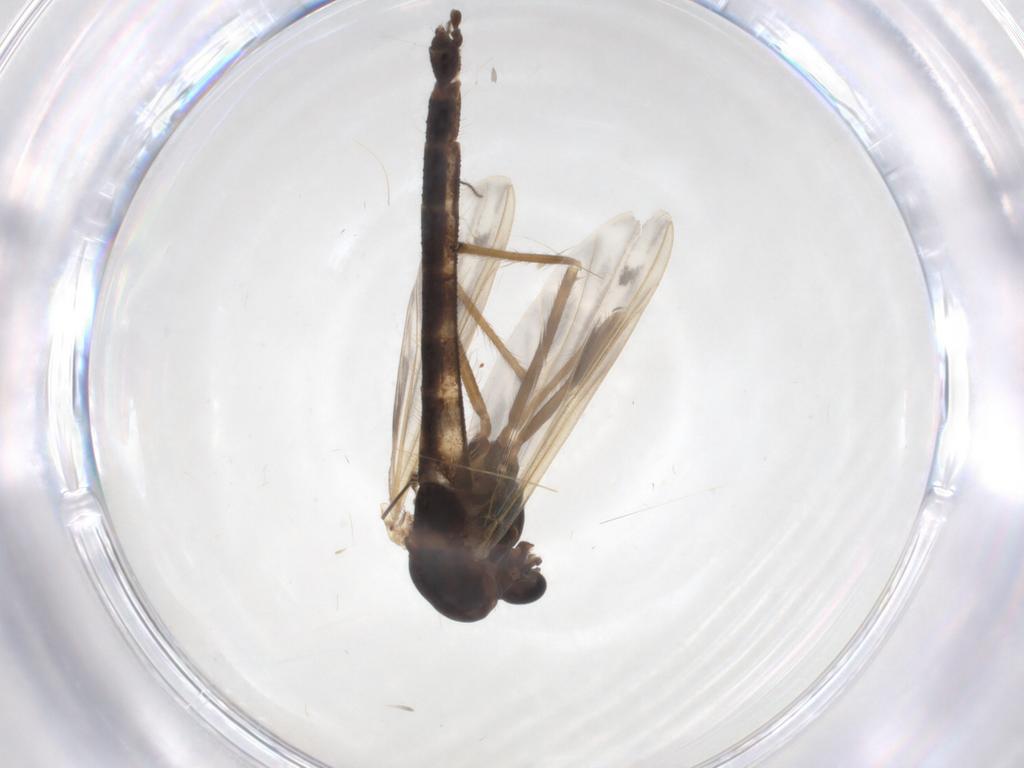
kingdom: Animalia
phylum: Arthropoda
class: Insecta
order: Diptera
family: Chironomidae
